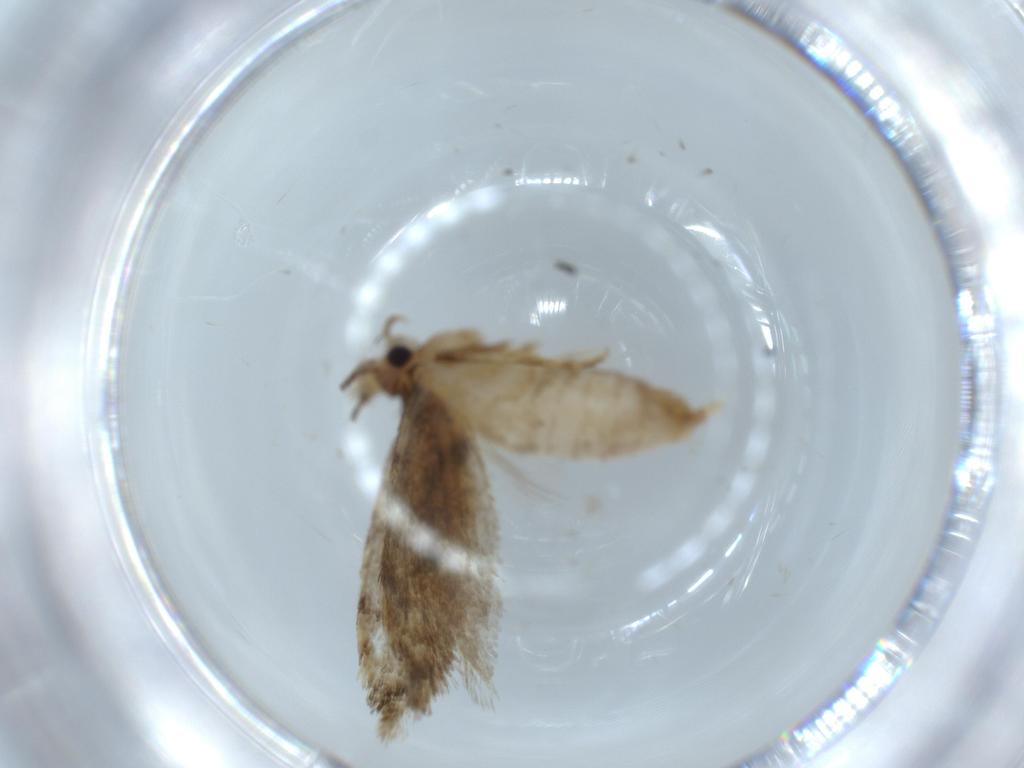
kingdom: Animalia
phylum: Arthropoda
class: Insecta
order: Lepidoptera
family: Tineidae
